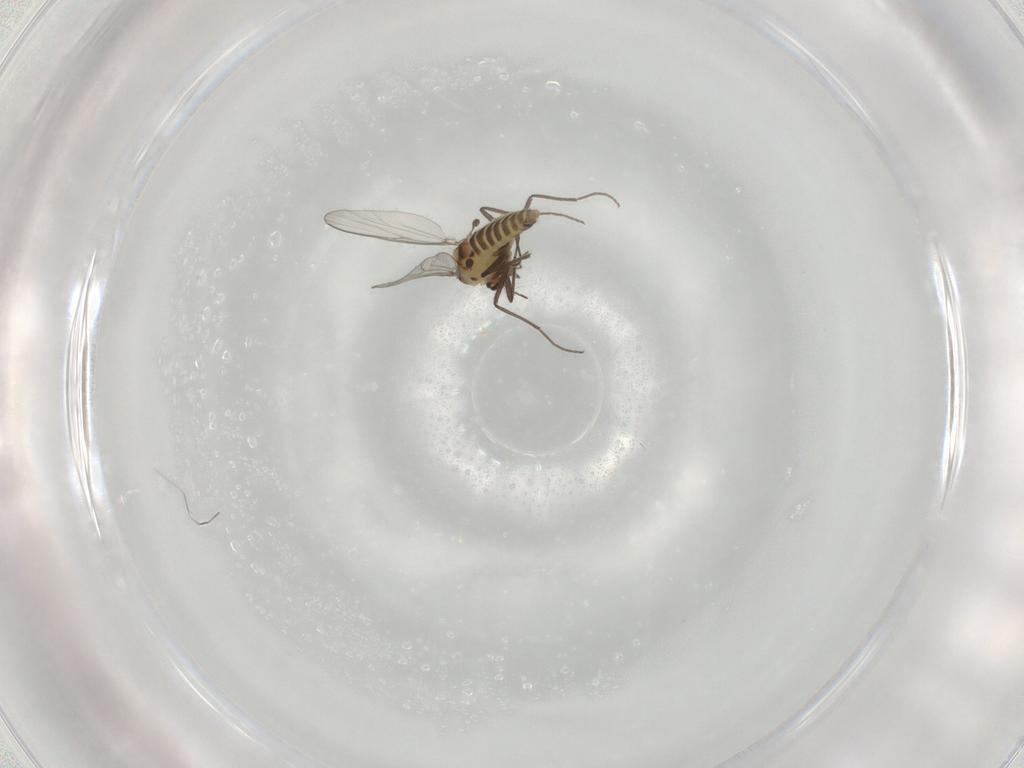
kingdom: Animalia
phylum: Arthropoda
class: Insecta
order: Diptera
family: Chironomidae
